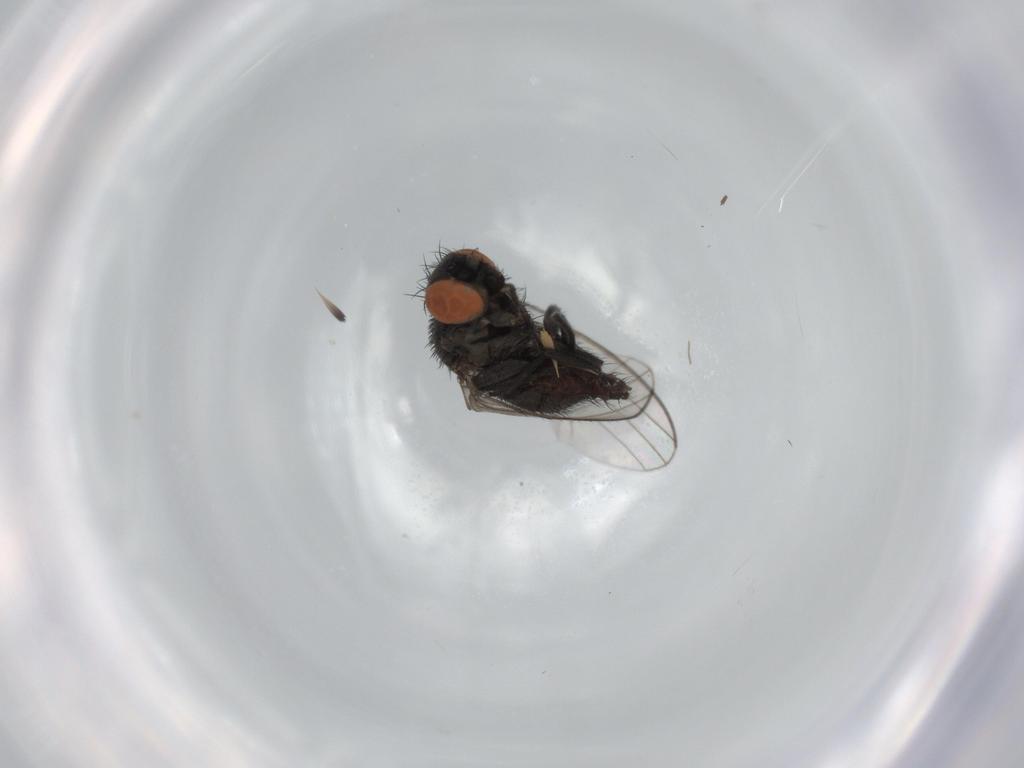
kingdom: Animalia
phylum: Arthropoda
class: Insecta
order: Diptera
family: Milichiidae
